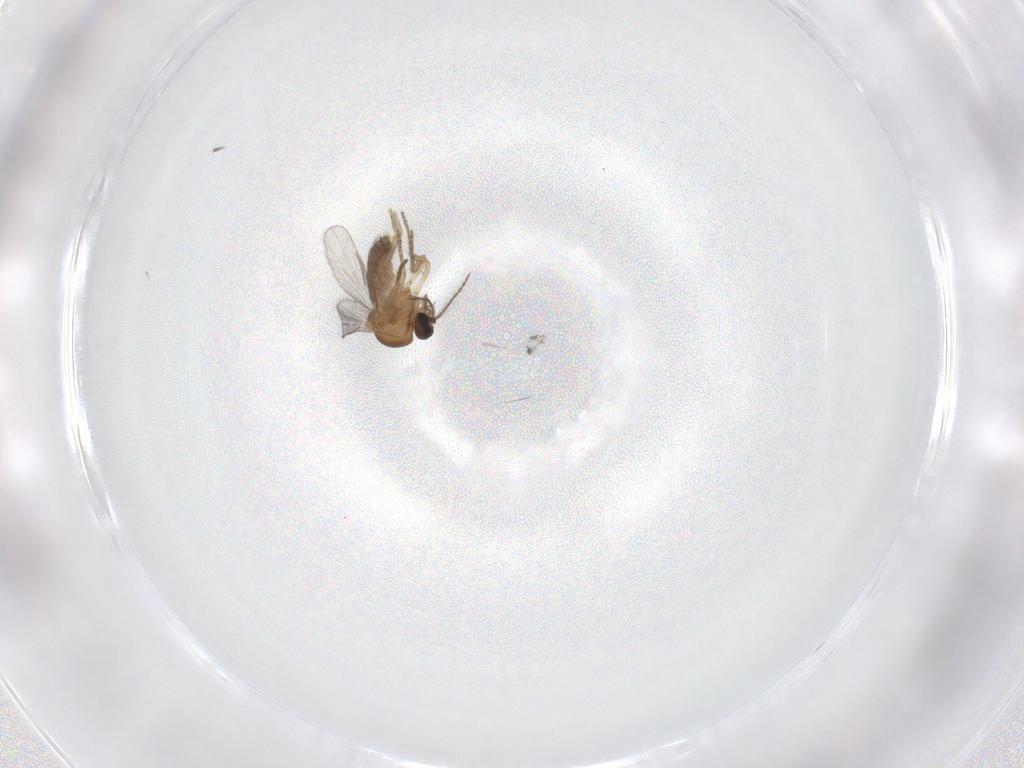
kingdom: Animalia
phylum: Arthropoda
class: Insecta
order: Diptera
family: Ceratopogonidae
